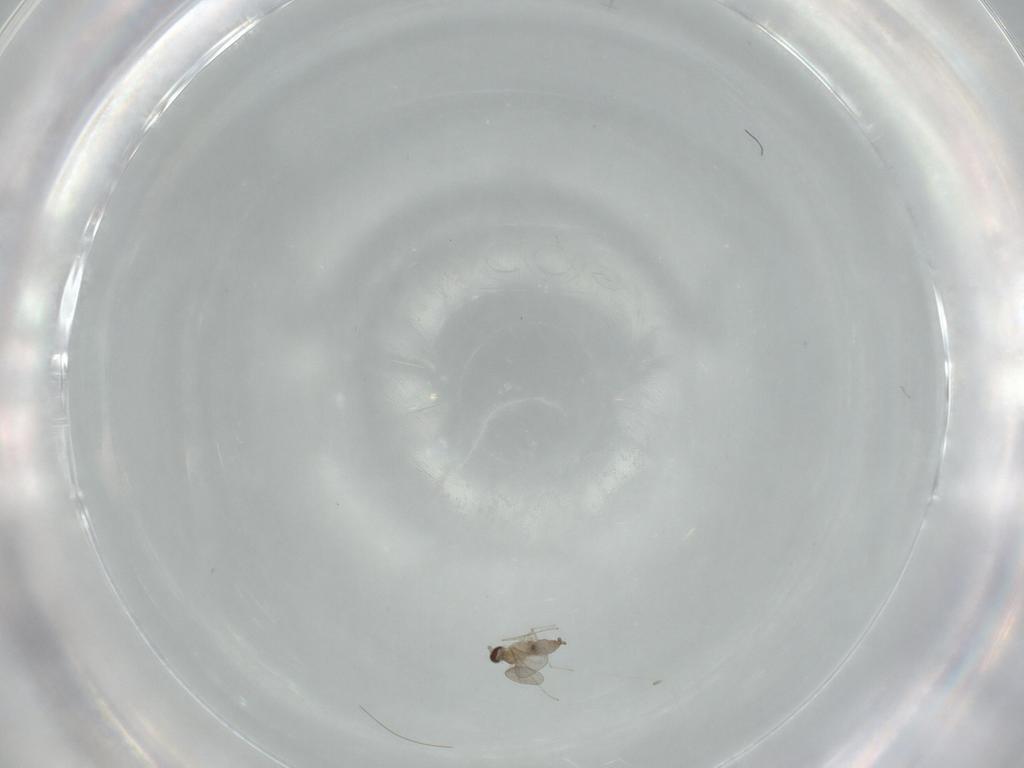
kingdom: Animalia
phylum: Arthropoda
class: Insecta
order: Diptera
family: Cecidomyiidae
